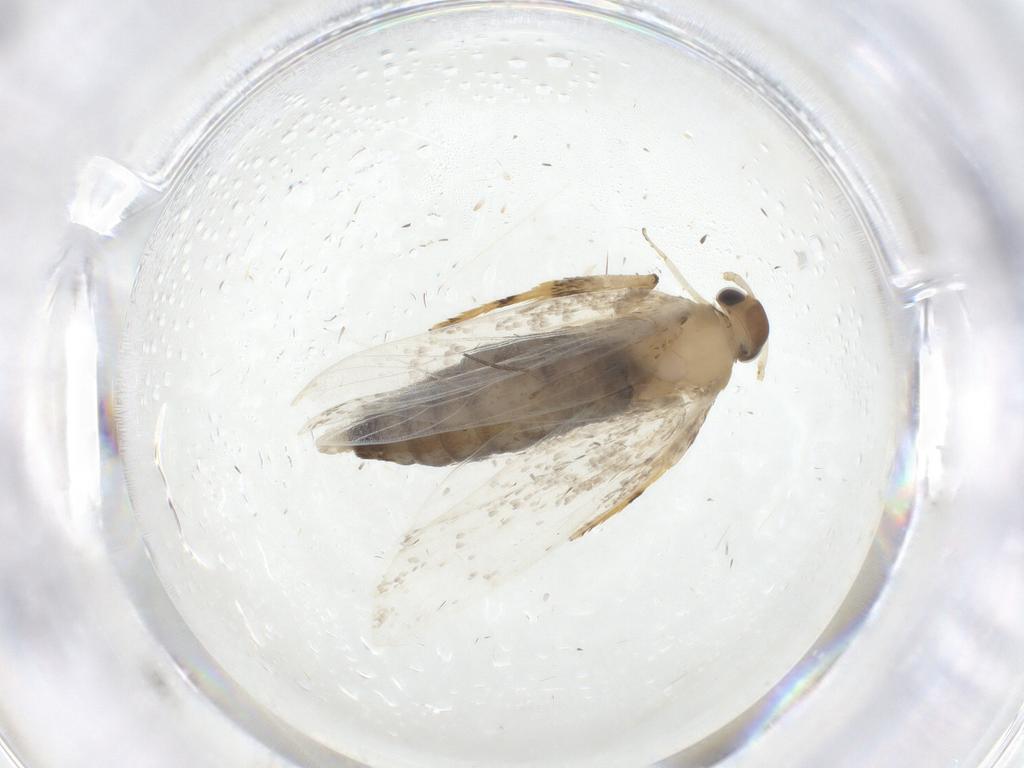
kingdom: Animalia
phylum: Arthropoda
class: Insecta
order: Lepidoptera
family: Lecithoceridae
